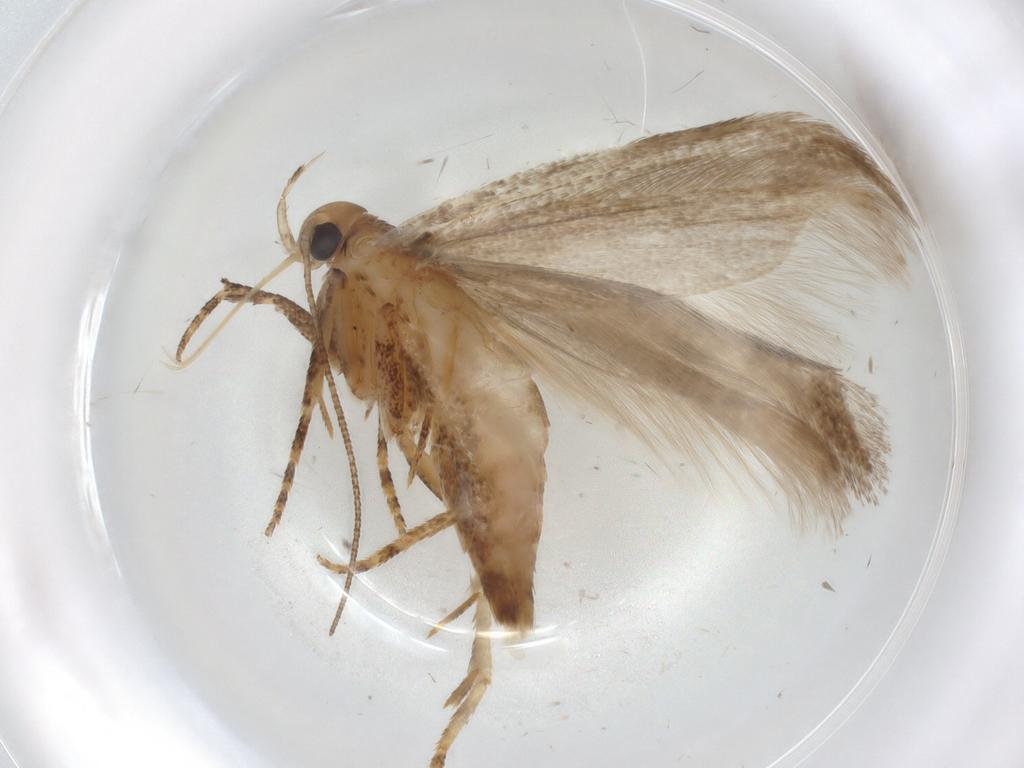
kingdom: Animalia
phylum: Arthropoda
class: Insecta
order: Lepidoptera
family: Gelechiidae
